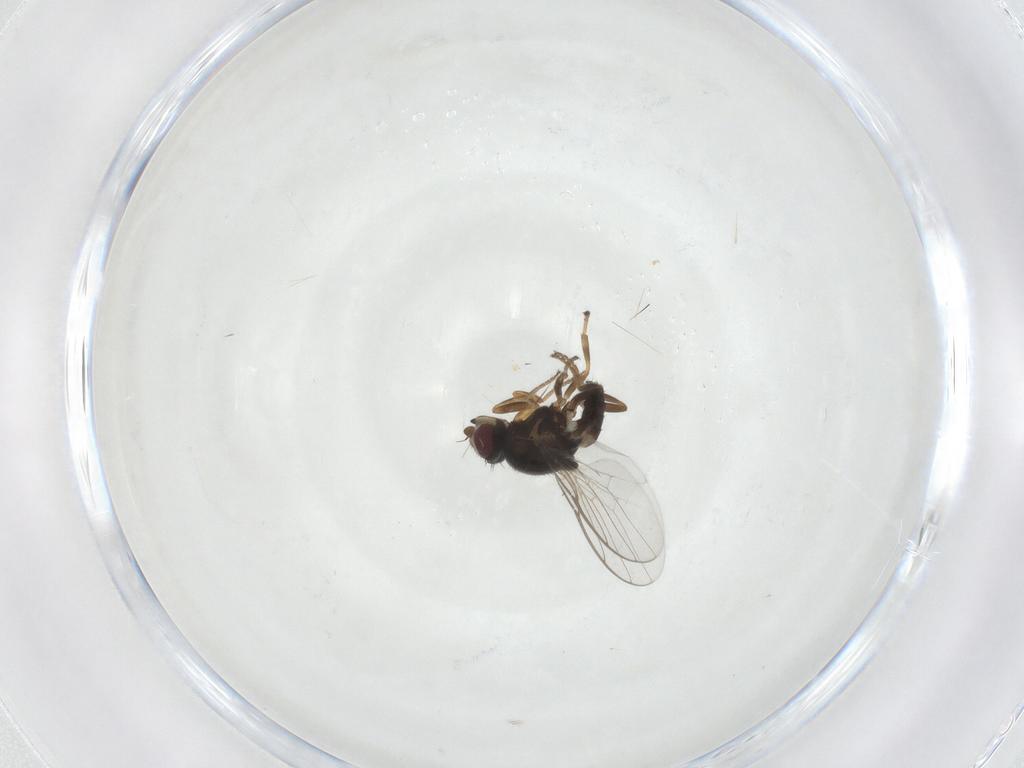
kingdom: Animalia
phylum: Arthropoda
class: Insecta
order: Diptera
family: Chloropidae
